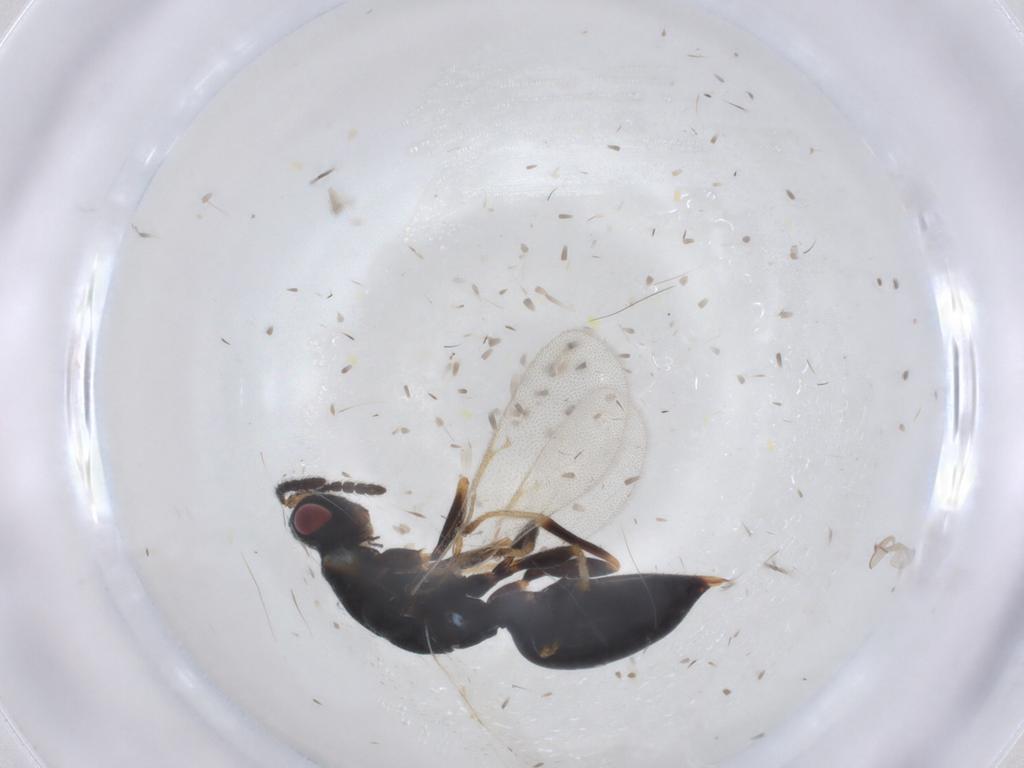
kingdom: Animalia
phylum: Arthropoda
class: Insecta
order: Hymenoptera
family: Eurytomidae
